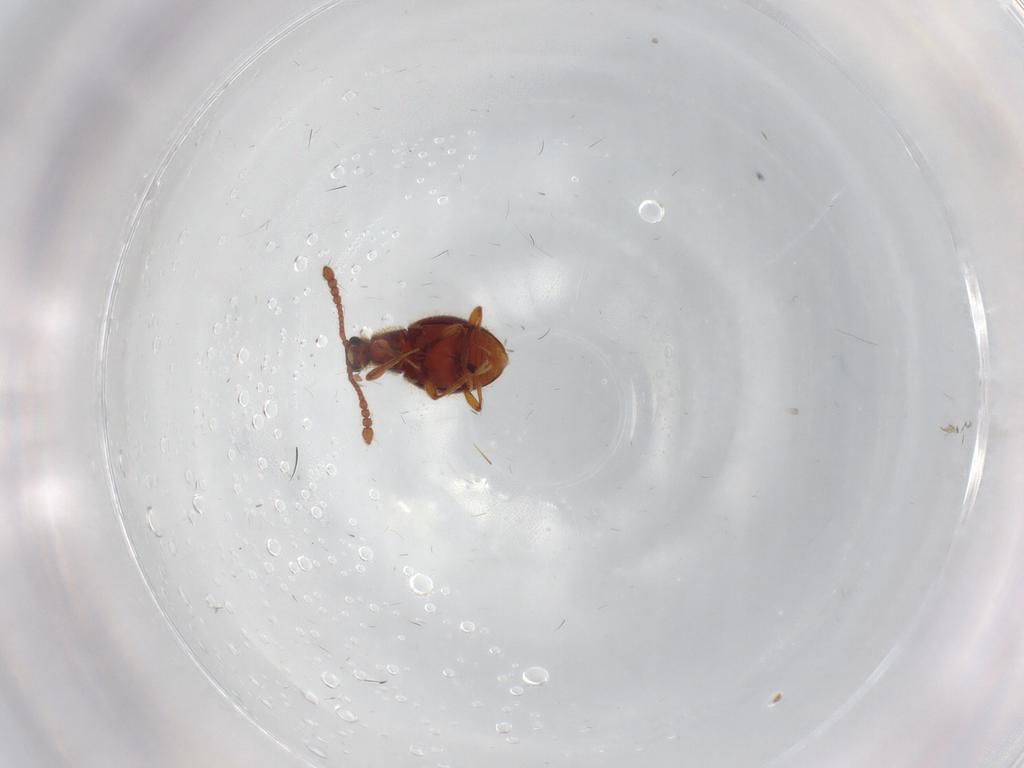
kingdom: Animalia
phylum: Arthropoda
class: Insecta
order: Coleoptera
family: Staphylinidae
